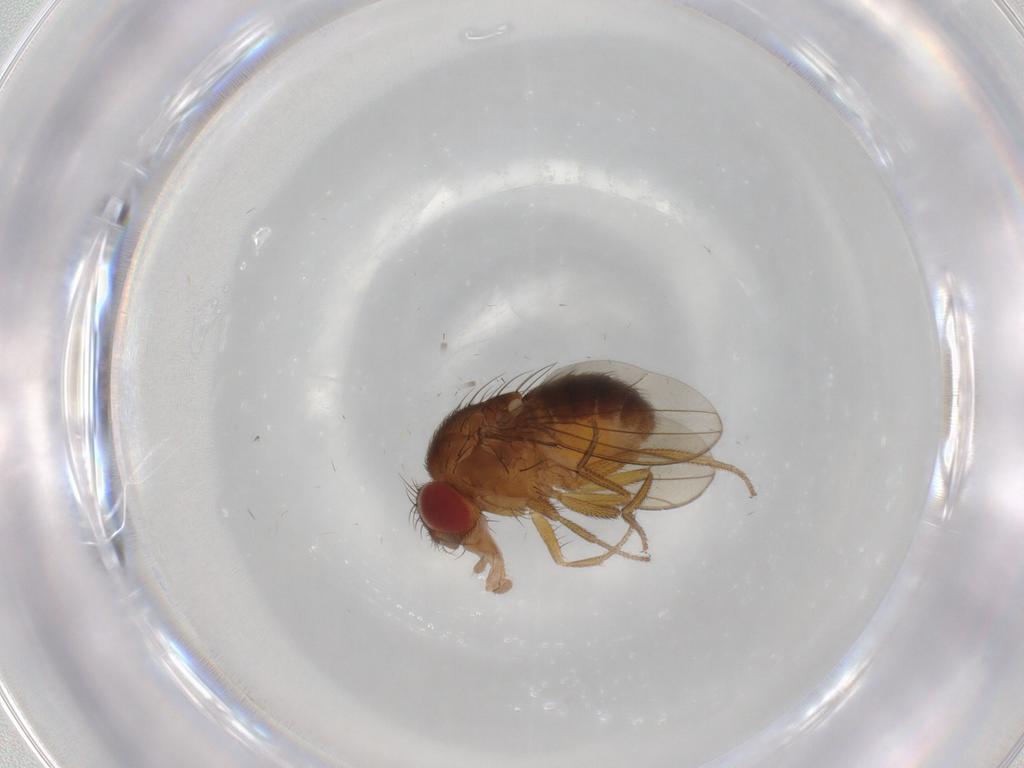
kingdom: Animalia
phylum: Arthropoda
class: Insecta
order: Diptera
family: Drosophilidae
